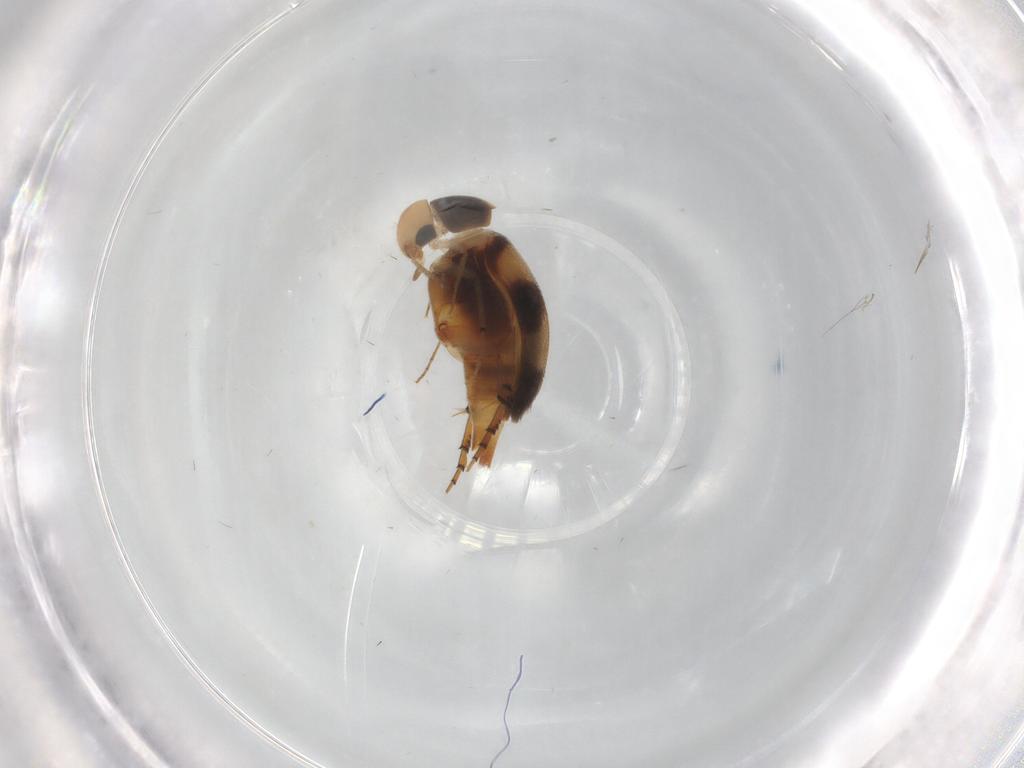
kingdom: Animalia
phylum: Arthropoda
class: Insecta
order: Coleoptera
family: Mordellidae
